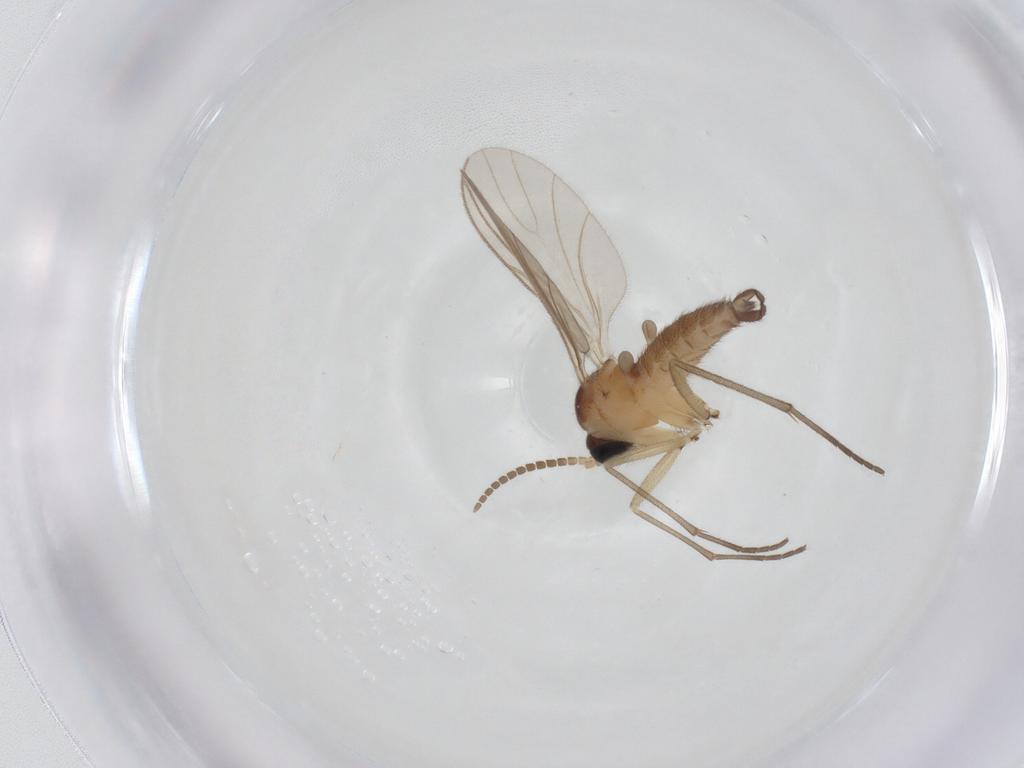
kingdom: Animalia
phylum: Arthropoda
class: Insecta
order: Diptera
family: Sciaridae
